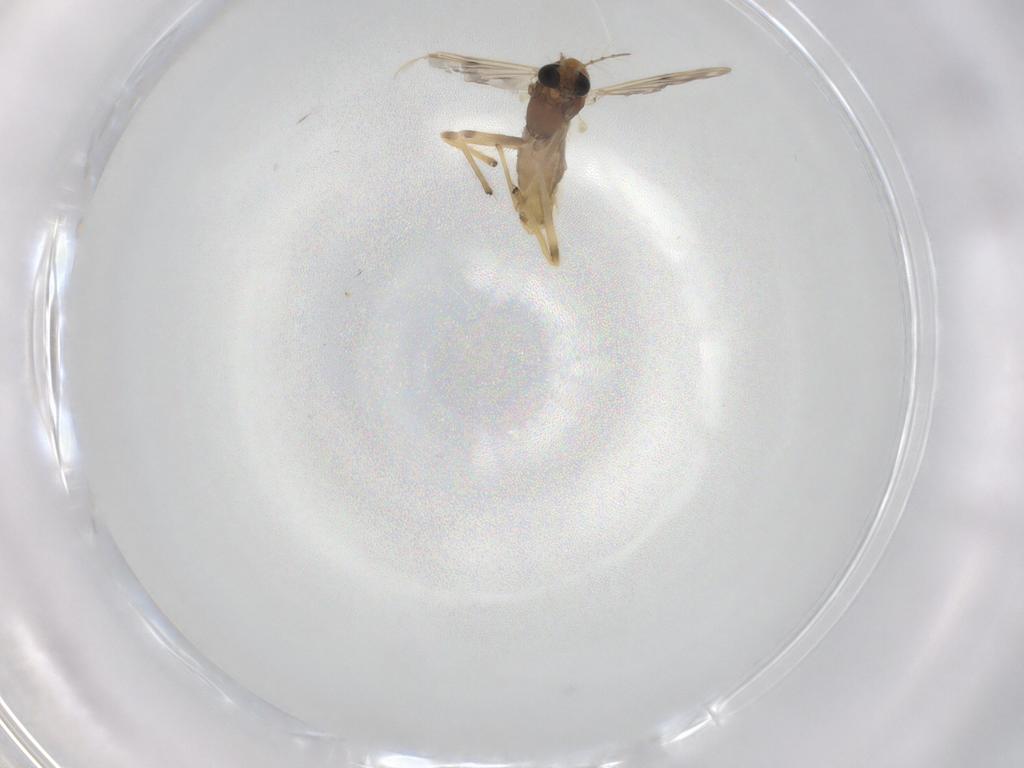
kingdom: Animalia
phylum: Arthropoda
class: Insecta
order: Diptera
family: Chironomidae
